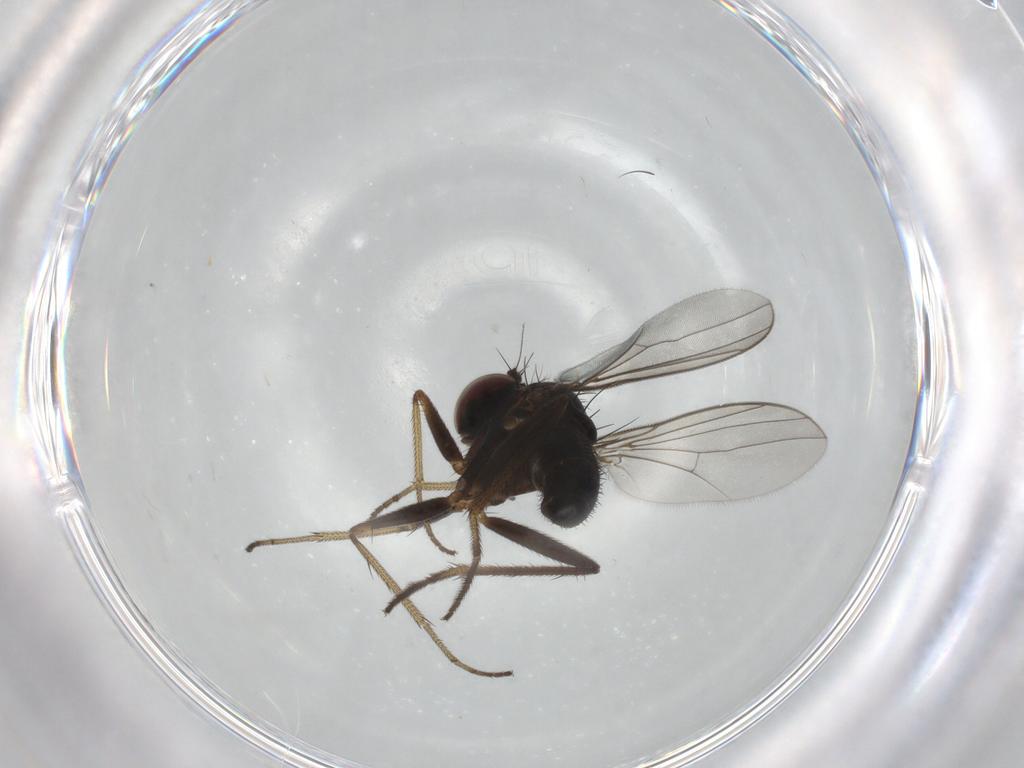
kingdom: Animalia
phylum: Arthropoda
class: Insecta
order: Diptera
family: Dolichopodidae
